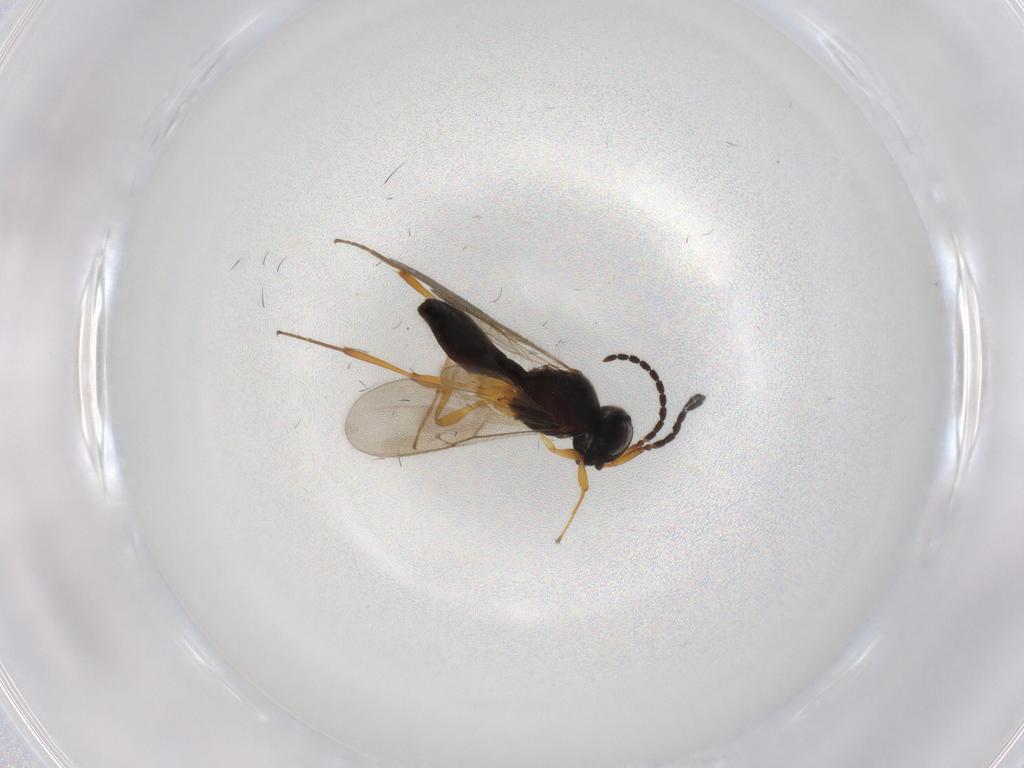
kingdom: Animalia
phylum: Arthropoda
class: Insecta
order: Hymenoptera
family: Scelionidae
